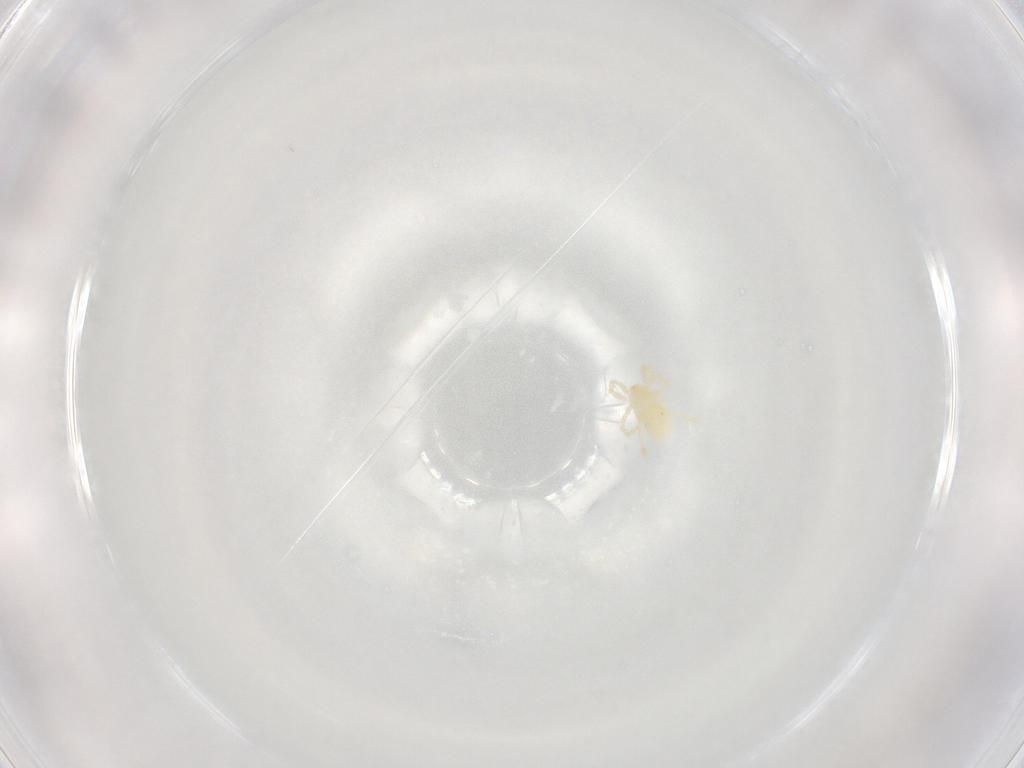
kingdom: Animalia
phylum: Arthropoda
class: Arachnida
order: Trombidiformes
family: Trombidiidae
